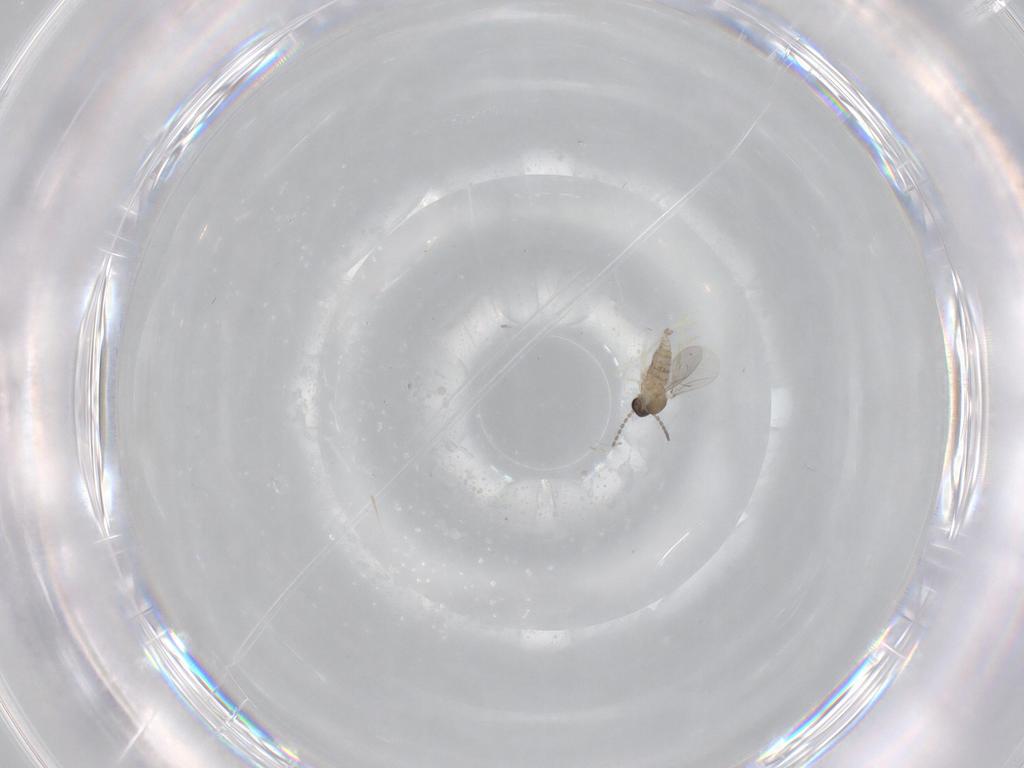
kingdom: Animalia
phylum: Arthropoda
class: Insecta
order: Diptera
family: Cecidomyiidae
